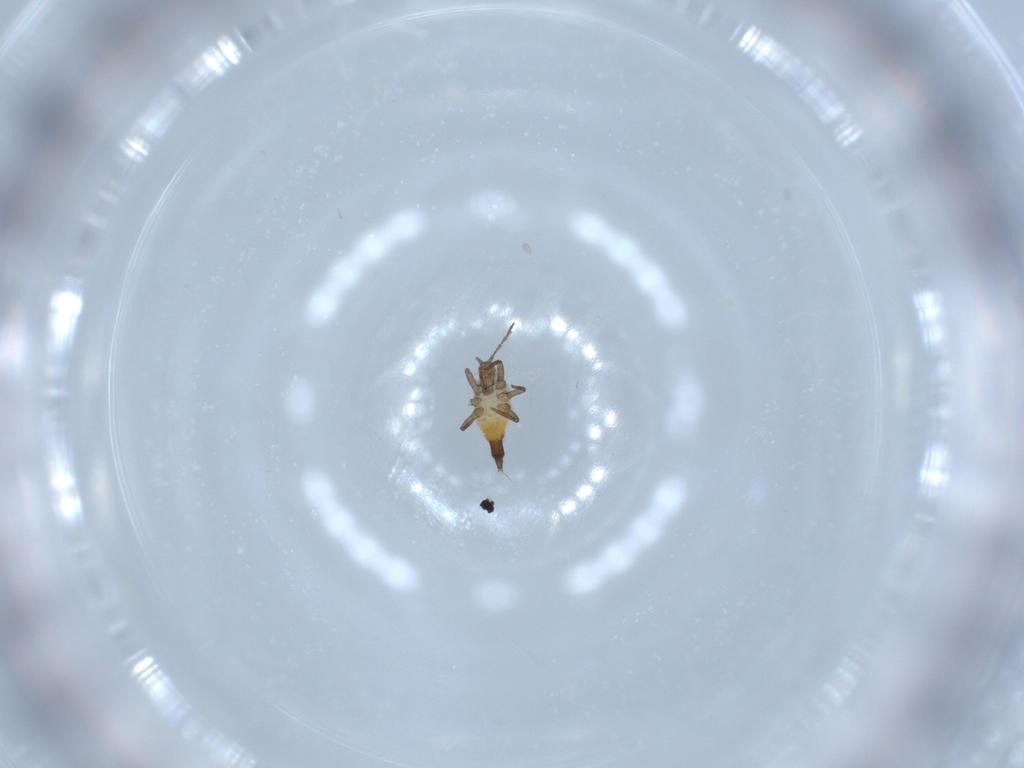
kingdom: Animalia
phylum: Arthropoda
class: Insecta
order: Thysanoptera
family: Phlaeothripidae
